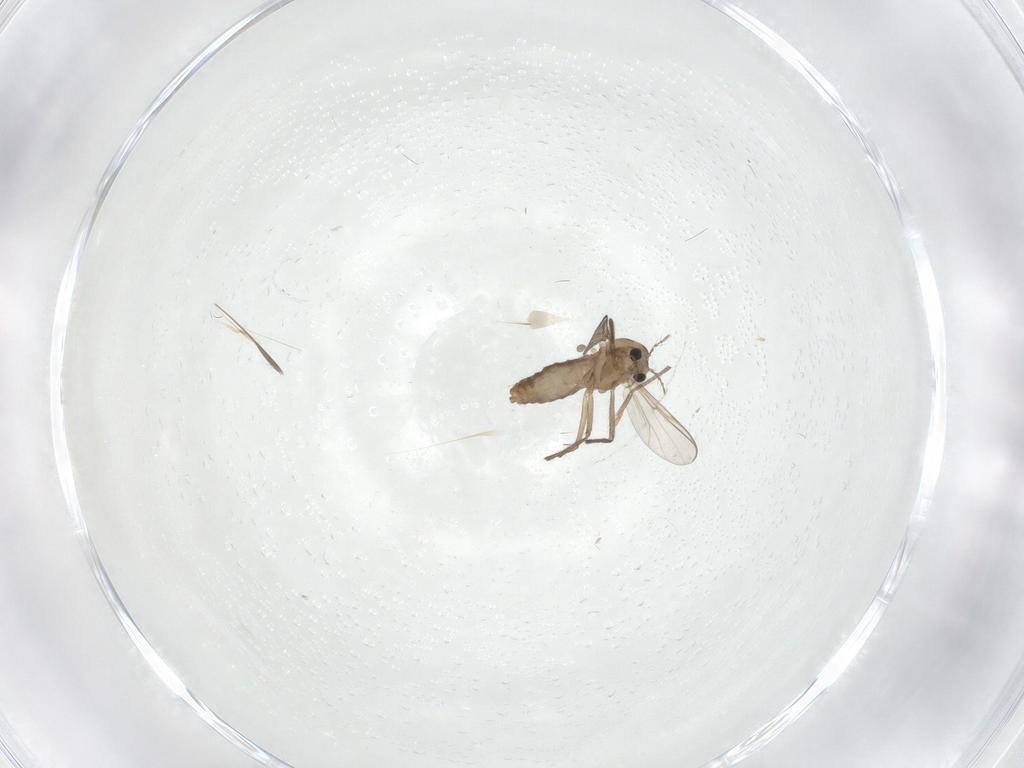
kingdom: Animalia
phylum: Arthropoda
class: Insecta
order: Diptera
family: Chironomidae
